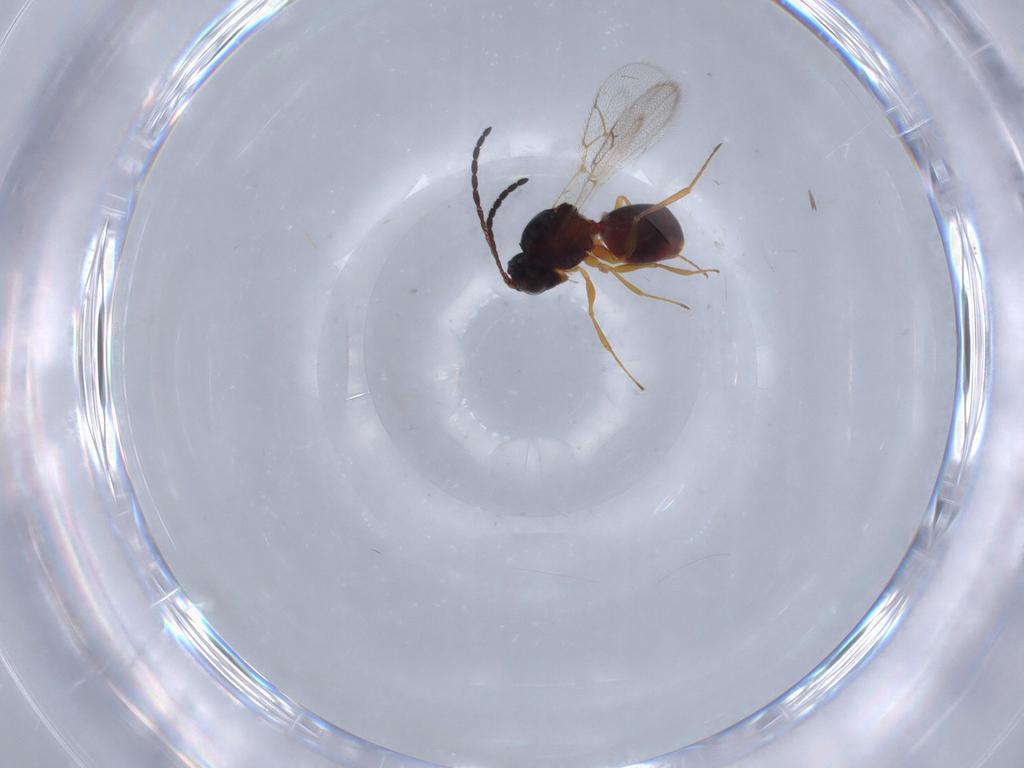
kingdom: Animalia
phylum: Arthropoda
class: Insecta
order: Hymenoptera
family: Figitidae
